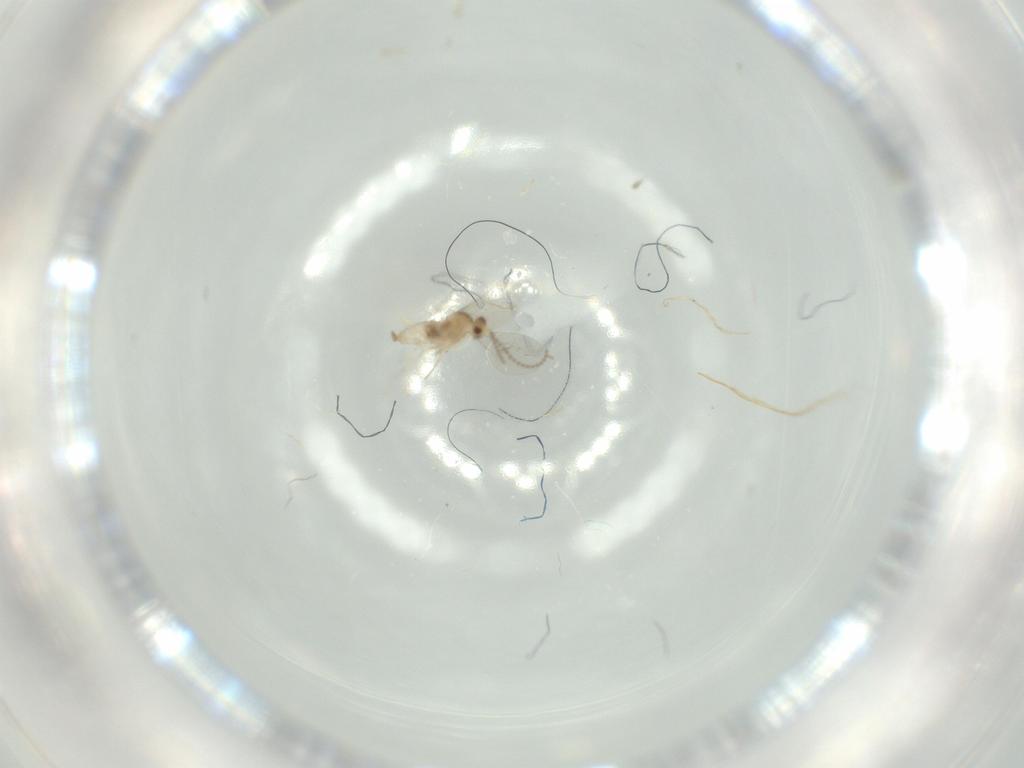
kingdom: Animalia
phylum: Arthropoda
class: Insecta
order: Diptera
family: Cecidomyiidae
